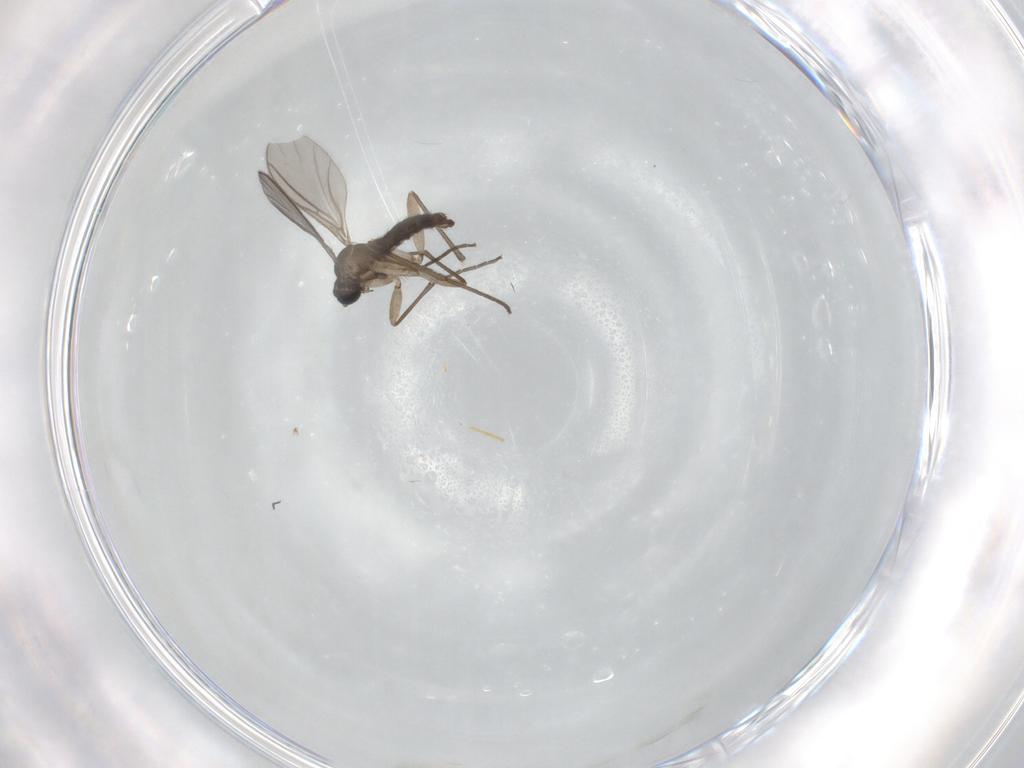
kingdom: Animalia
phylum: Arthropoda
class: Insecta
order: Diptera
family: Sciaridae
